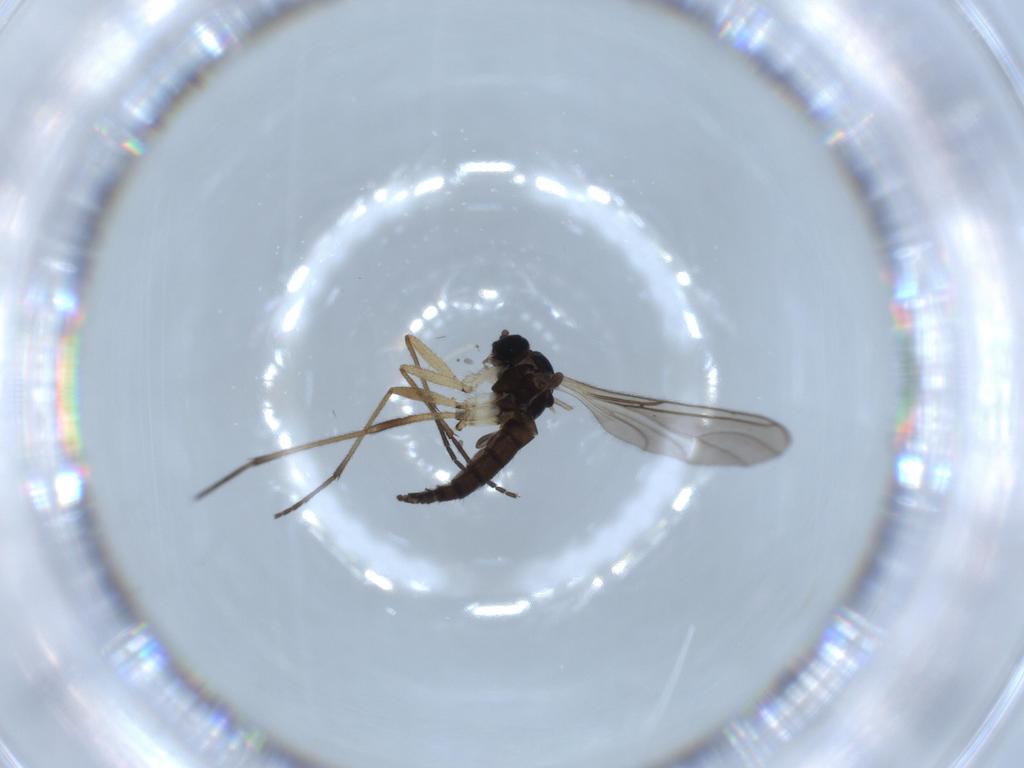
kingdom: Animalia
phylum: Arthropoda
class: Insecta
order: Diptera
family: Sciaridae
